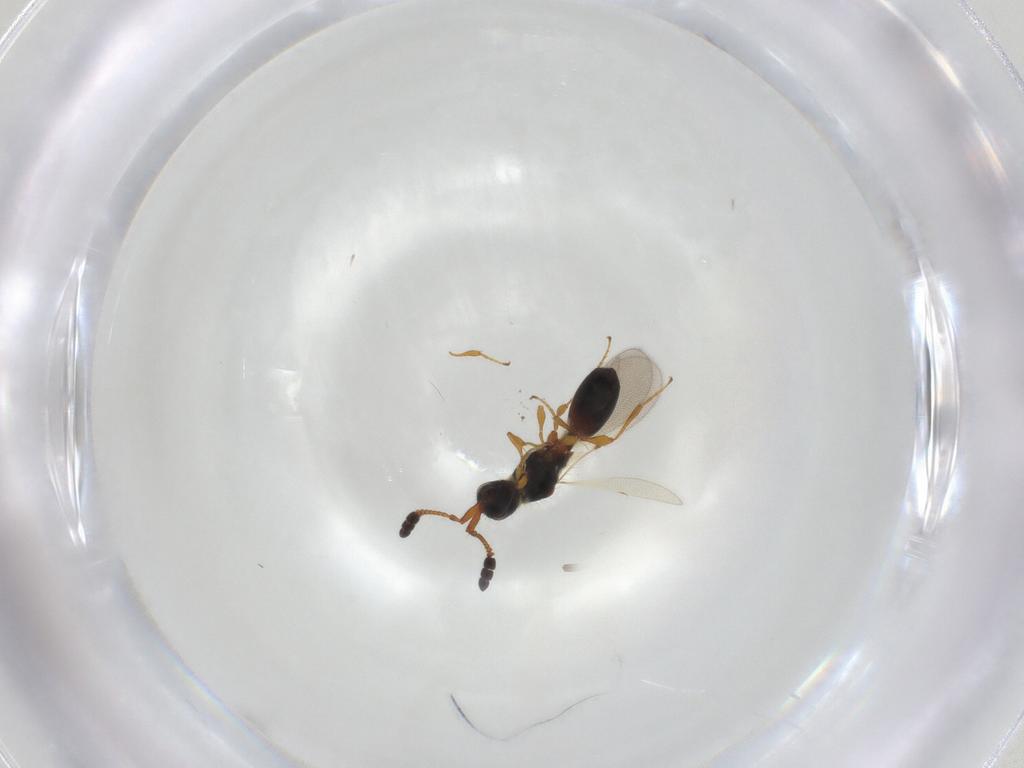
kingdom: Animalia
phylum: Arthropoda
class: Insecta
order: Hymenoptera
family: Diapriidae
